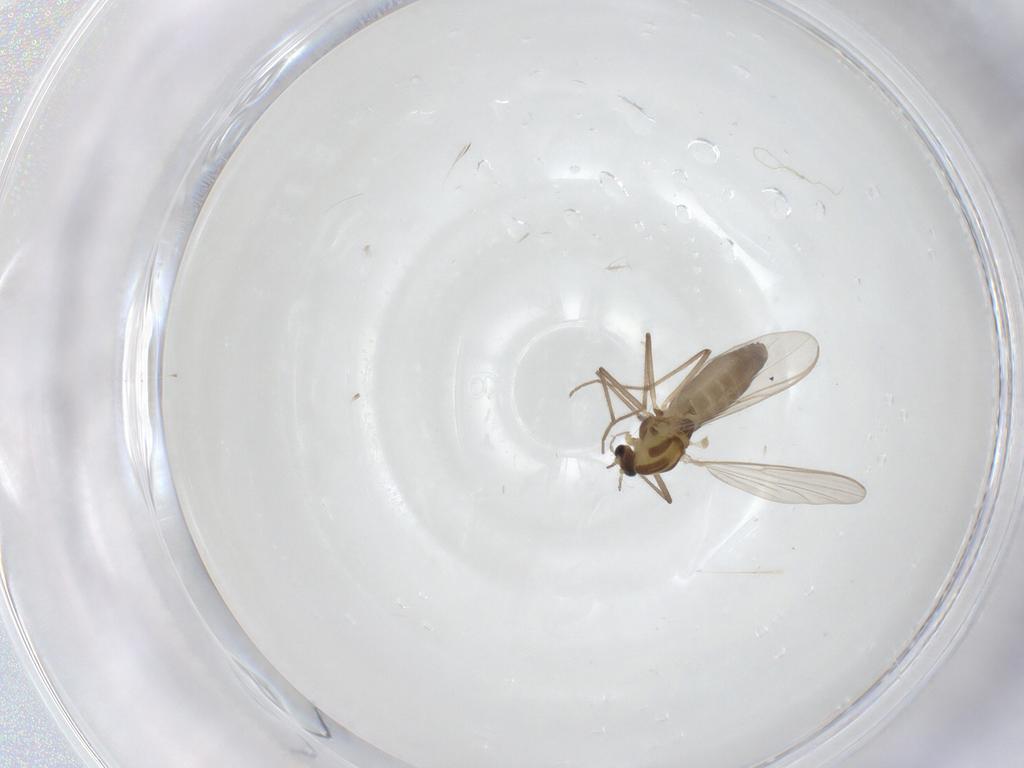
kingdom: Animalia
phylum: Arthropoda
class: Insecta
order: Diptera
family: Chironomidae
